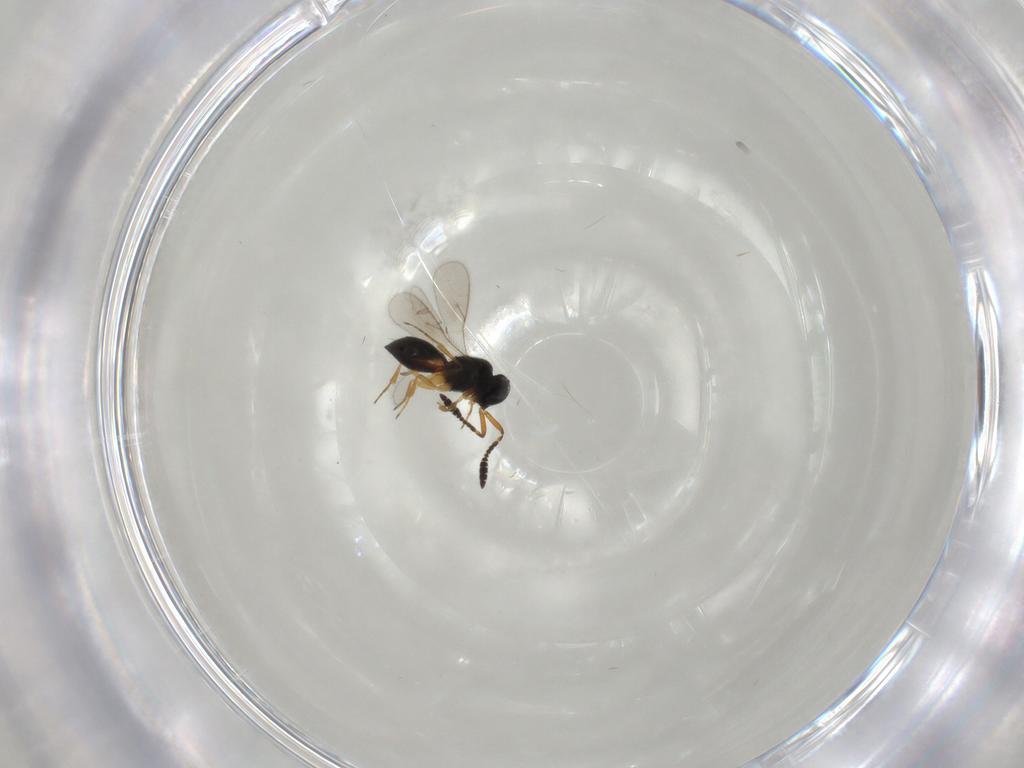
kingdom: Animalia
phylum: Arthropoda
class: Insecta
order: Hymenoptera
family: Scelionidae
